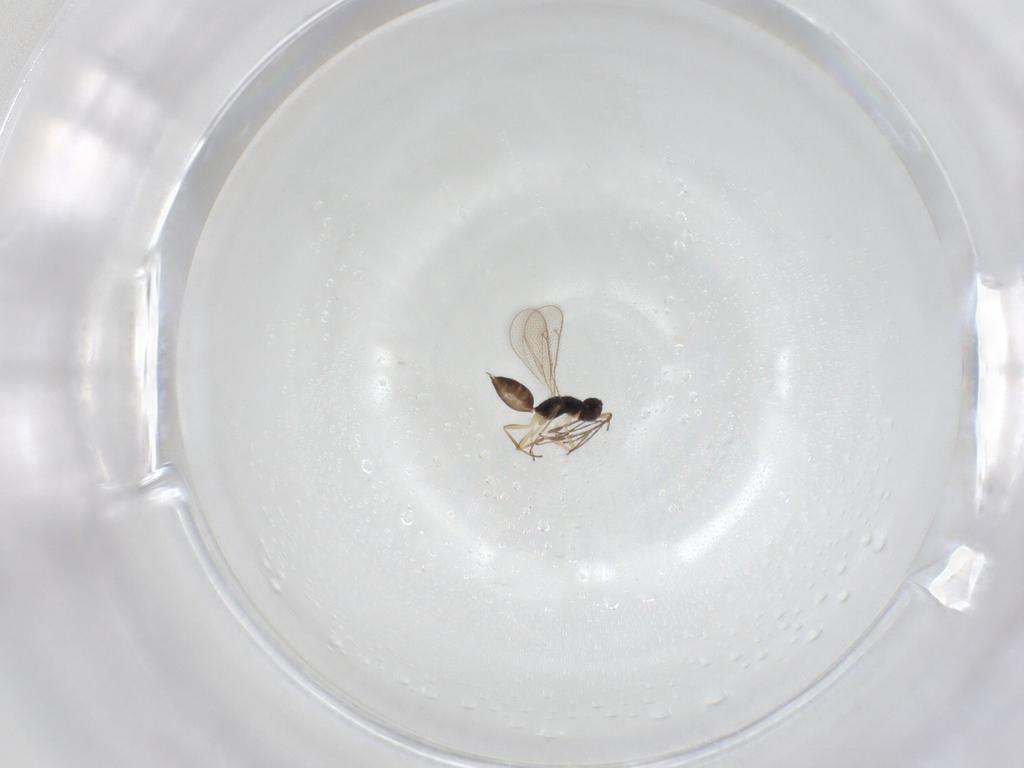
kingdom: Animalia
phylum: Arthropoda
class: Insecta
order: Hymenoptera
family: Eulophidae
